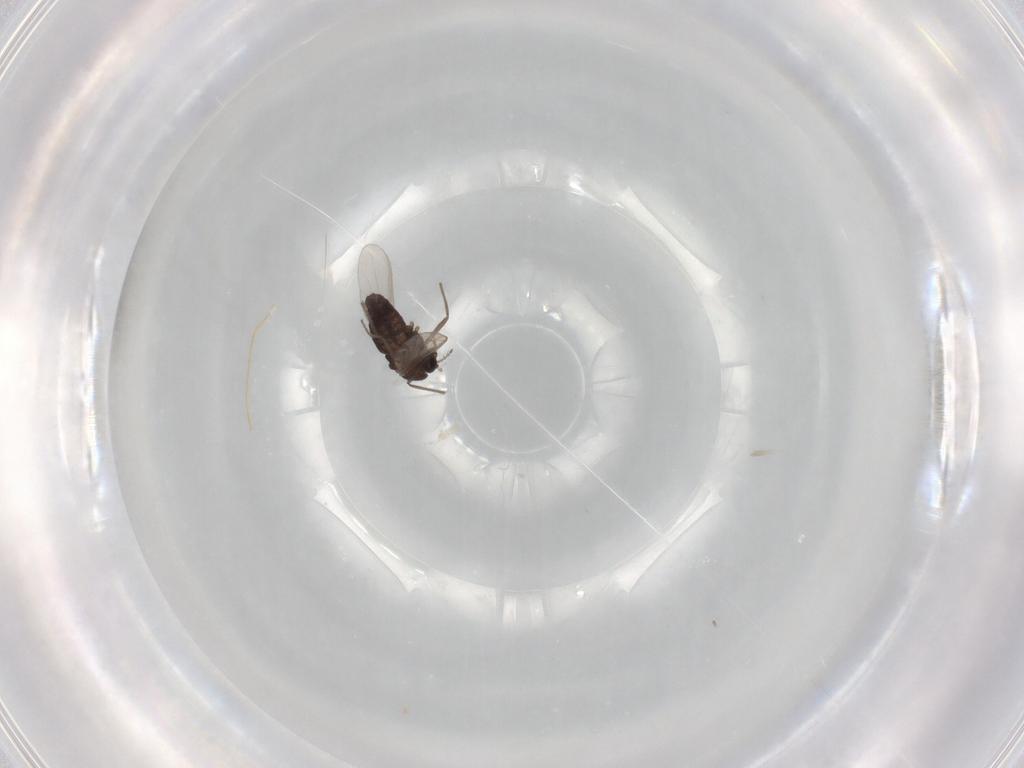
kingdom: Animalia
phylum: Arthropoda
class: Insecta
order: Diptera
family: Chironomidae
